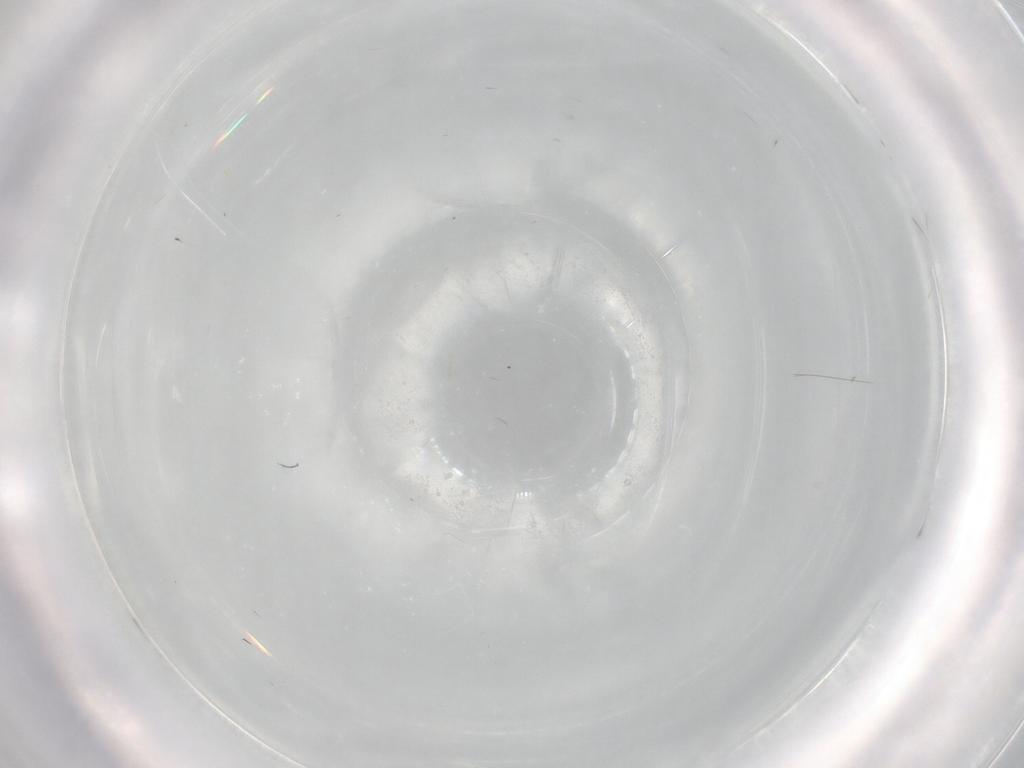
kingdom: Animalia
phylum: Arthropoda
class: Insecta
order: Diptera
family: Milichiidae
